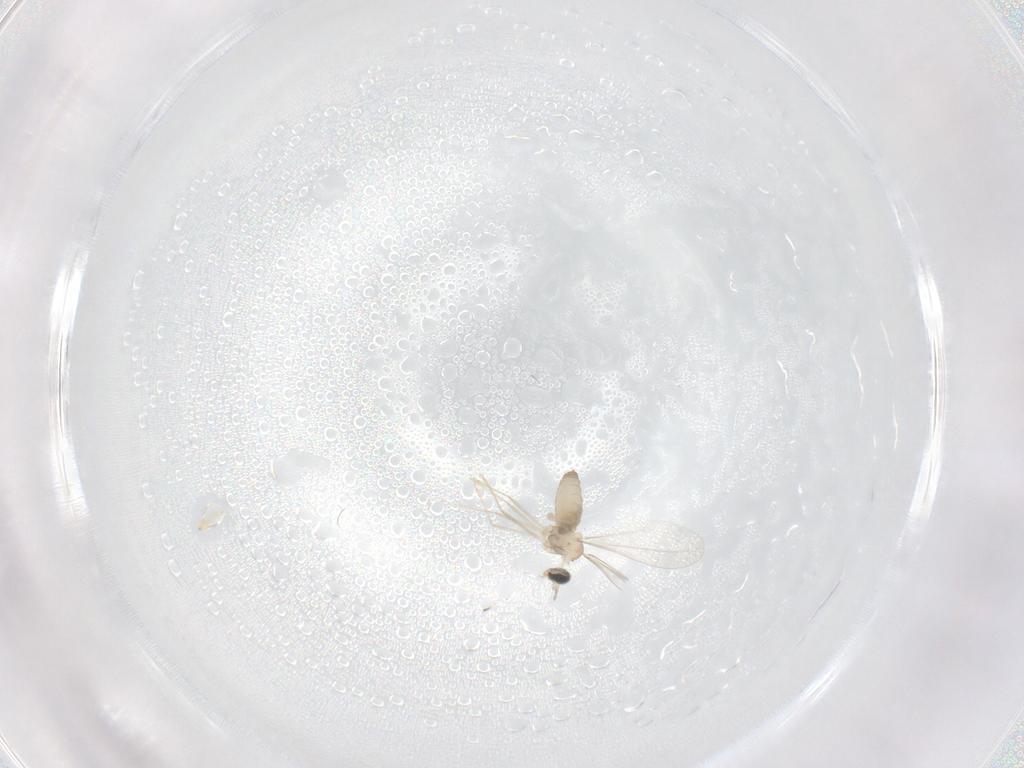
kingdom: Animalia
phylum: Arthropoda
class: Insecta
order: Diptera
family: Cecidomyiidae
